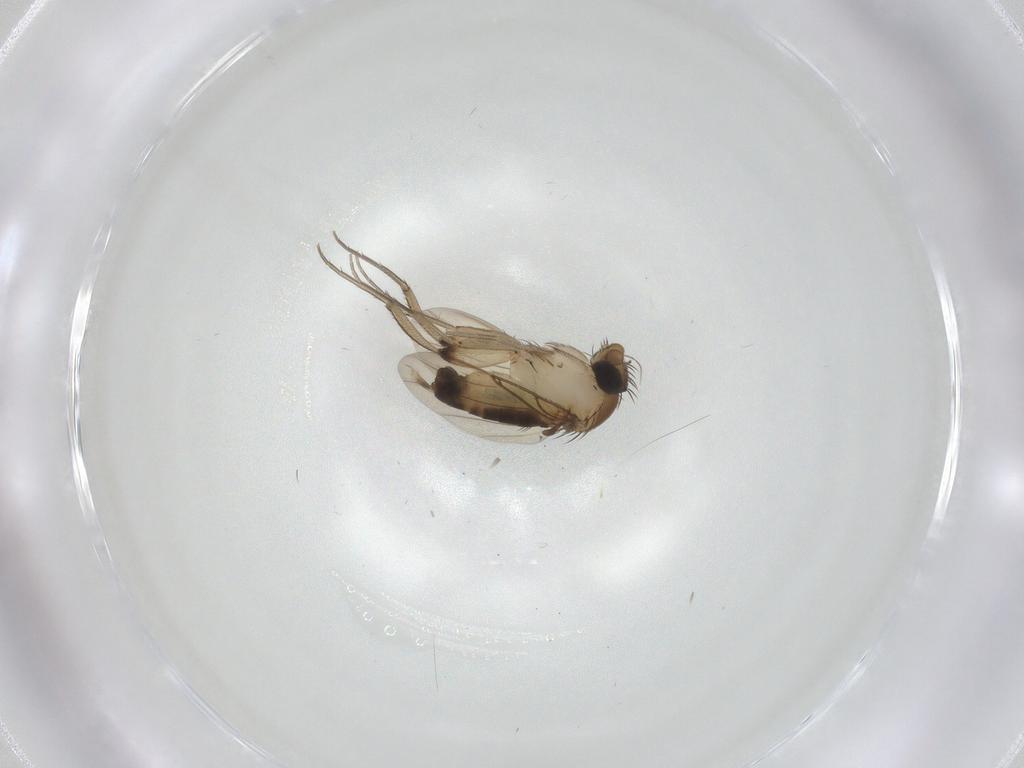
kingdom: Animalia
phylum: Arthropoda
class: Insecta
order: Diptera
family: Phoridae
